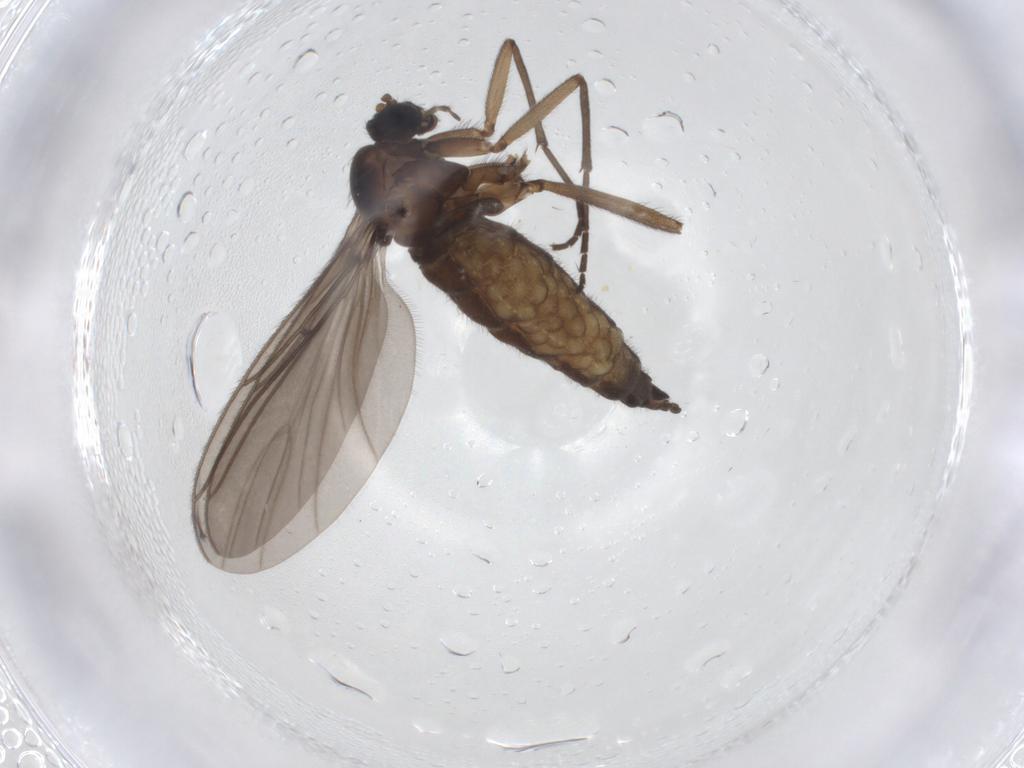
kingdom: Animalia
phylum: Arthropoda
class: Insecta
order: Diptera
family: Sciaridae
